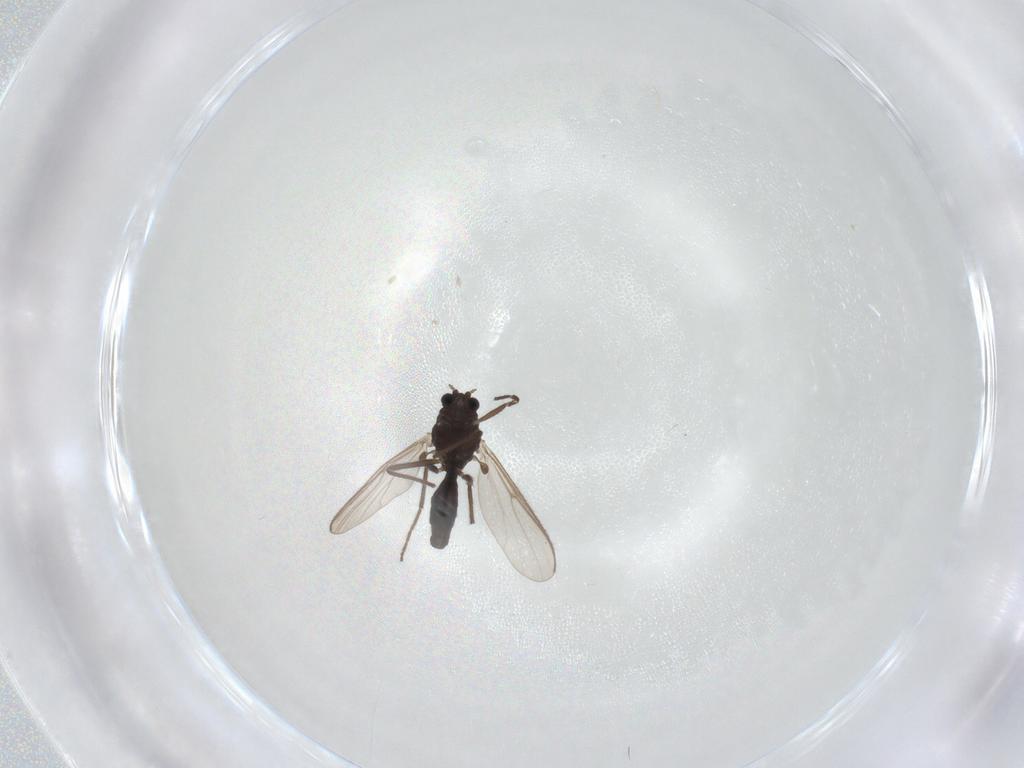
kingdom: Animalia
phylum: Arthropoda
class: Insecta
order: Diptera
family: Chironomidae
